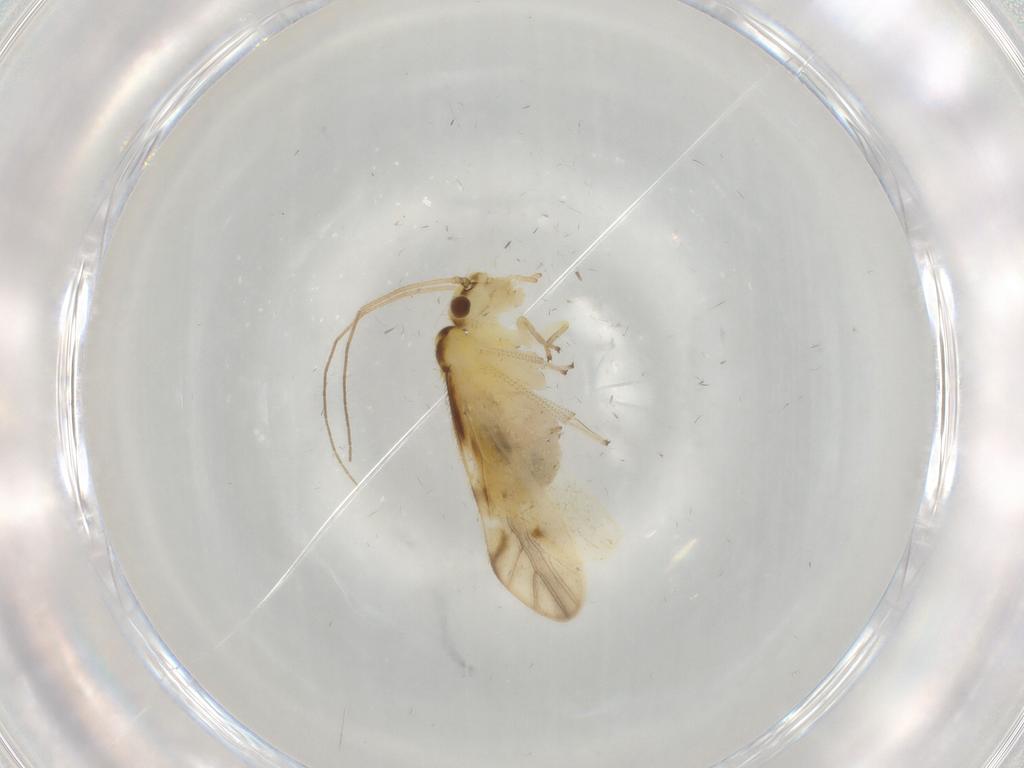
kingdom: Animalia
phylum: Arthropoda
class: Insecta
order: Psocodea
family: Caeciliusidae
